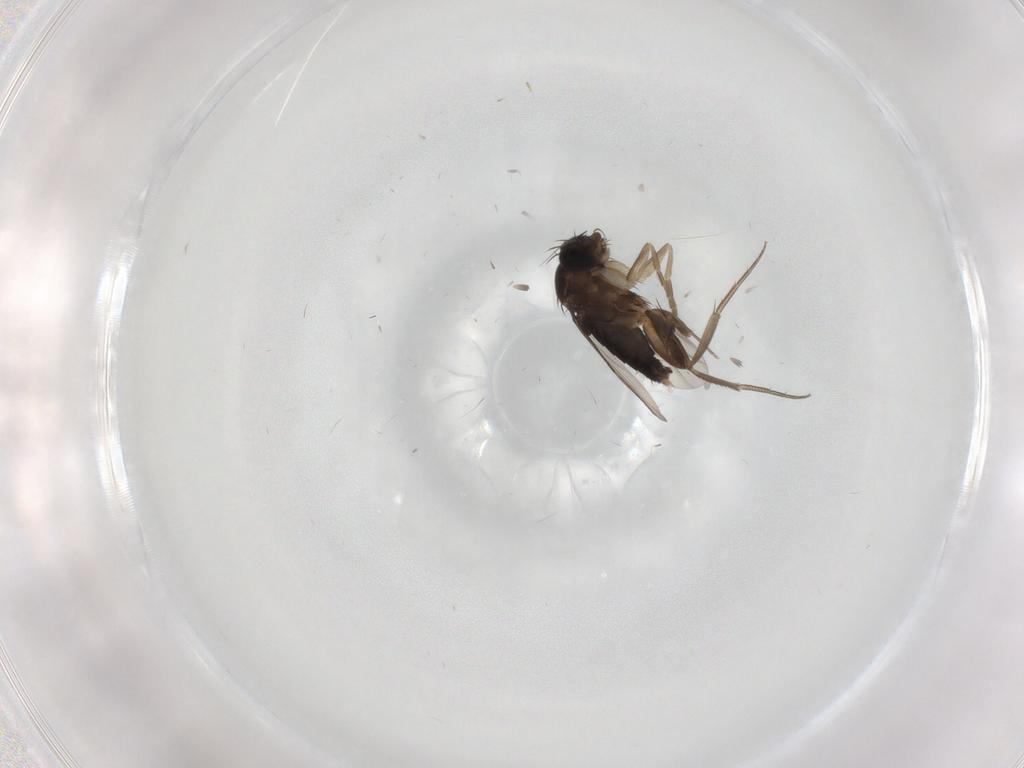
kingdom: Animalia
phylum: Arthropoda
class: Insecta
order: Diptera
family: Phoridae
